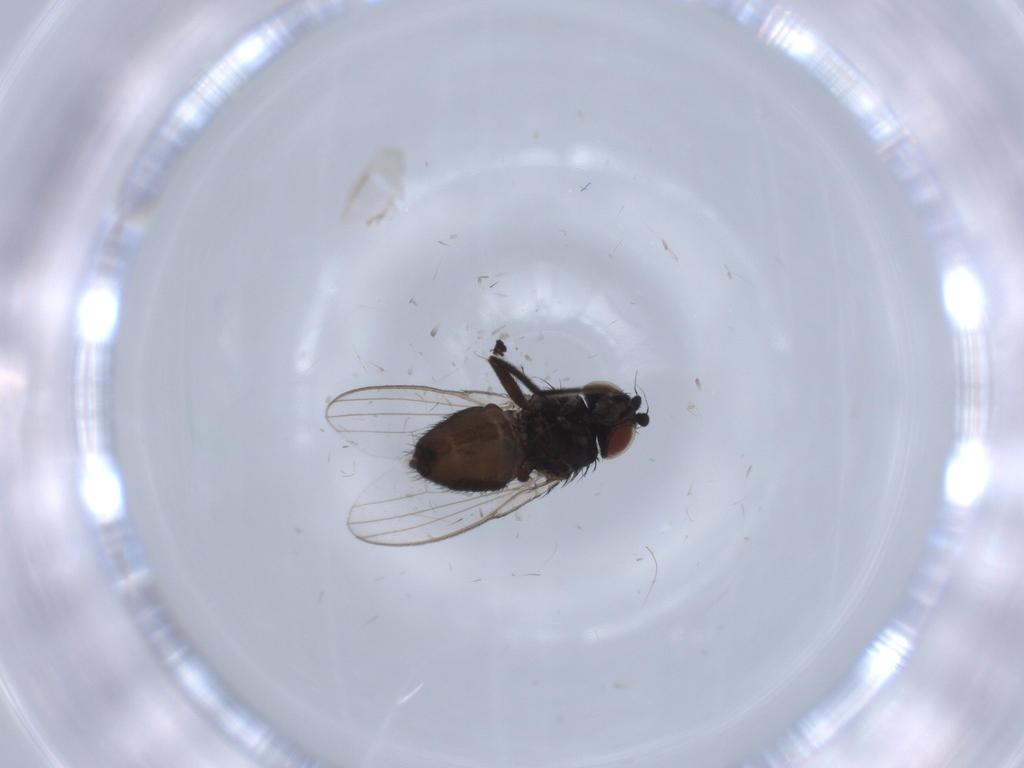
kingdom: Animalia
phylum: Arthropoda
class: Insecta
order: Diptera
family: Milichiidae
